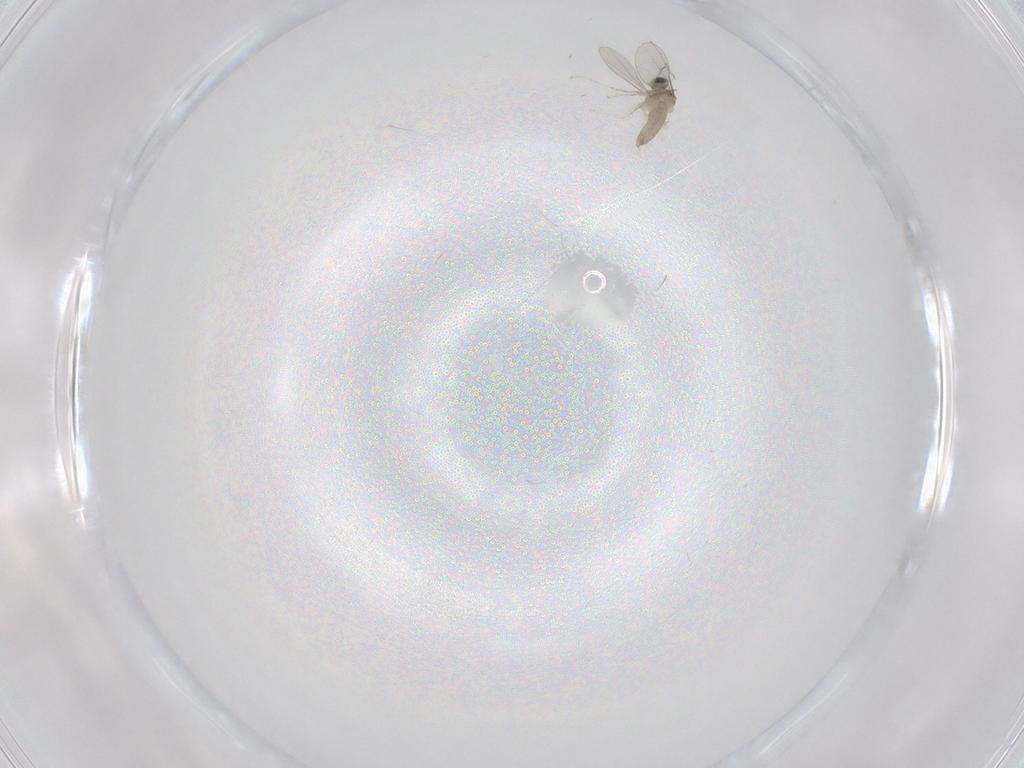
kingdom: Animalia
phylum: Arthropoda
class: Insecta
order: Diptera
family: Cecidomyiidae
